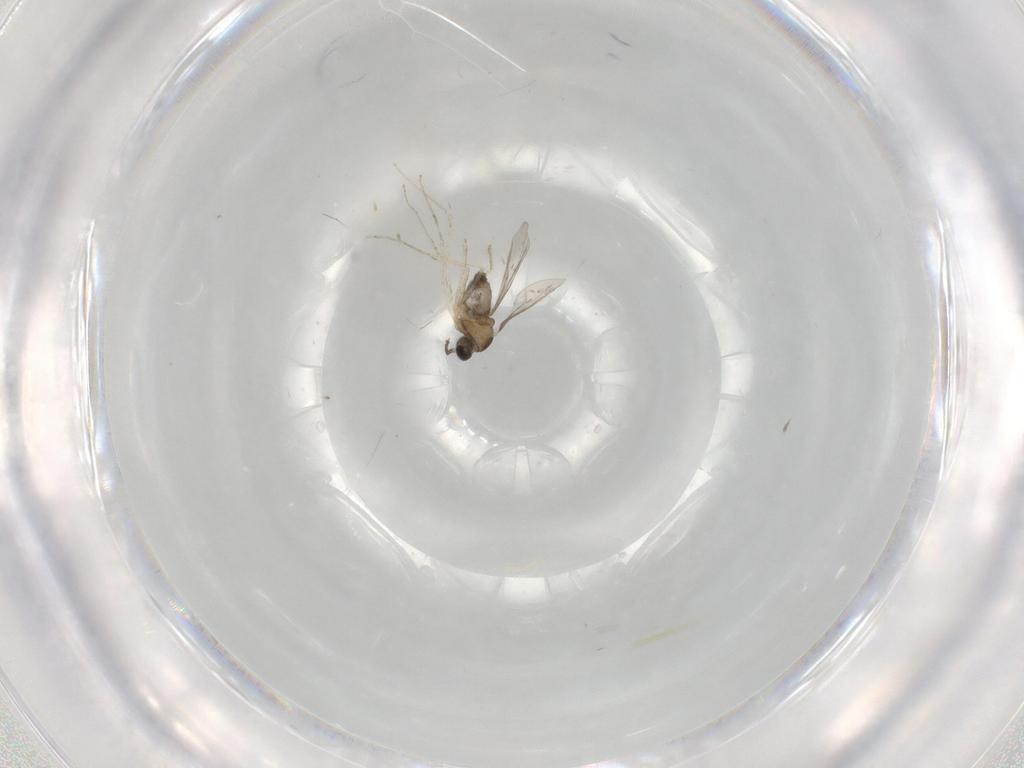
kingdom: Animalia
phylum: Arthropoda
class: Insecta
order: Diptera
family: Cecidomyiidae
